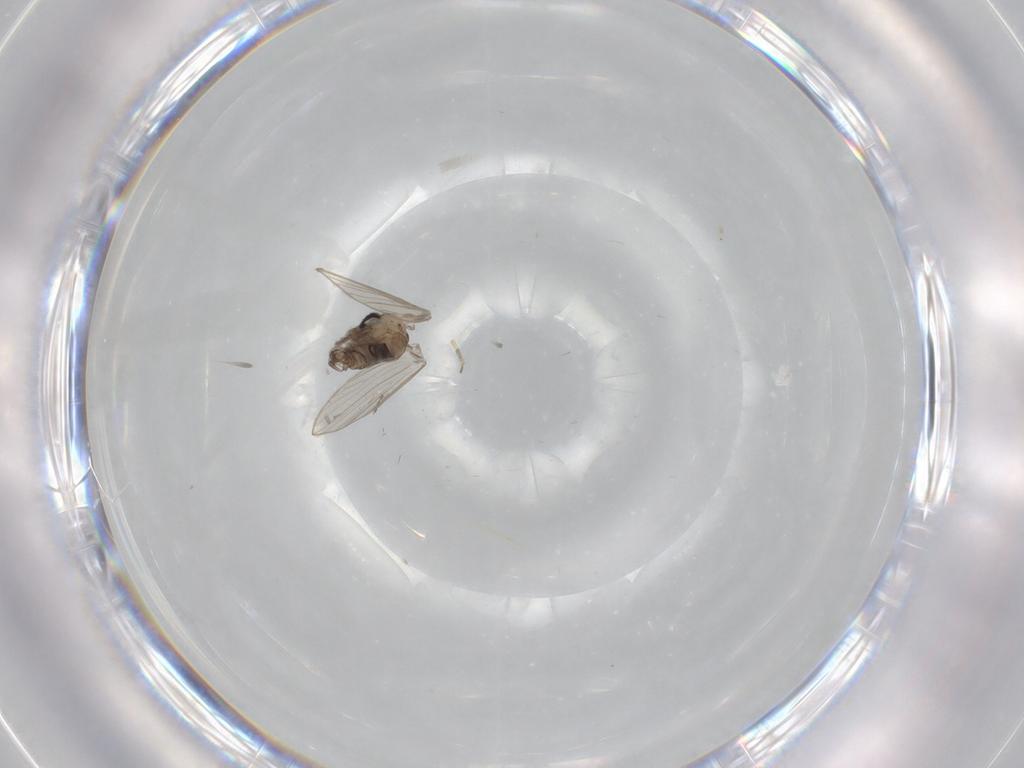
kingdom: Animalia
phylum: Arthropoda
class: Insecta
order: Diptera
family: Psychodidae
